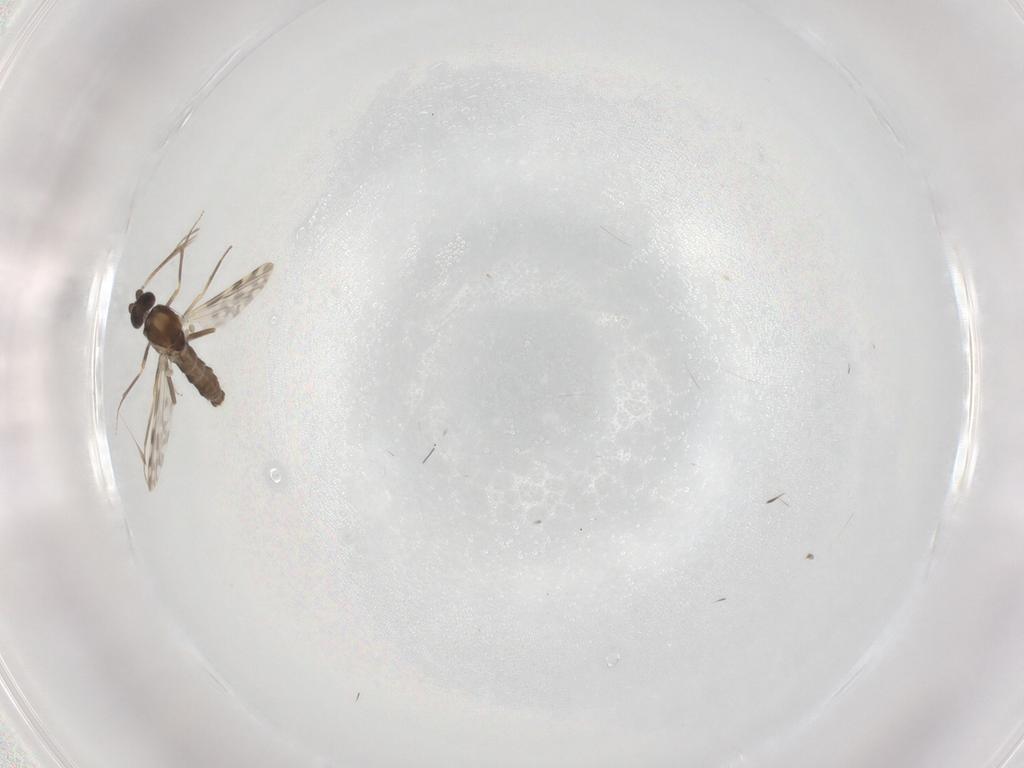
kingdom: Animalia
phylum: Arthropoda
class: Insecta
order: Diptera
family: Ceratopogonidae
